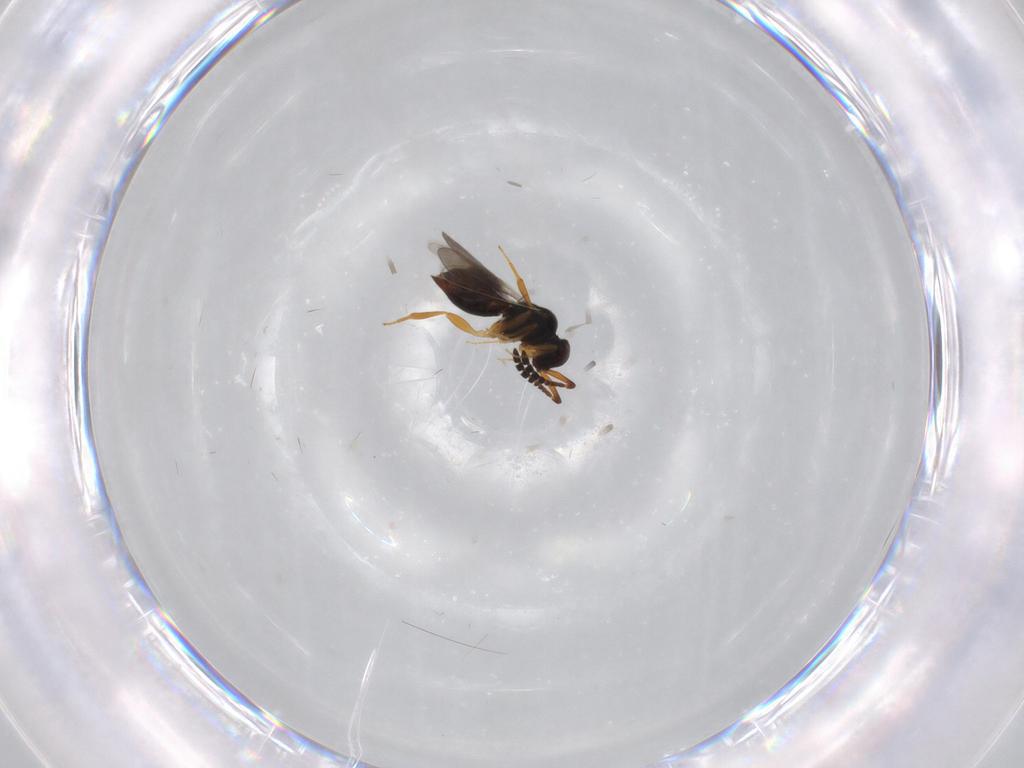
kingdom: Animalia
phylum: Arthropoda
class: Insecta
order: Hymenoptera
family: Ceraphronidae
